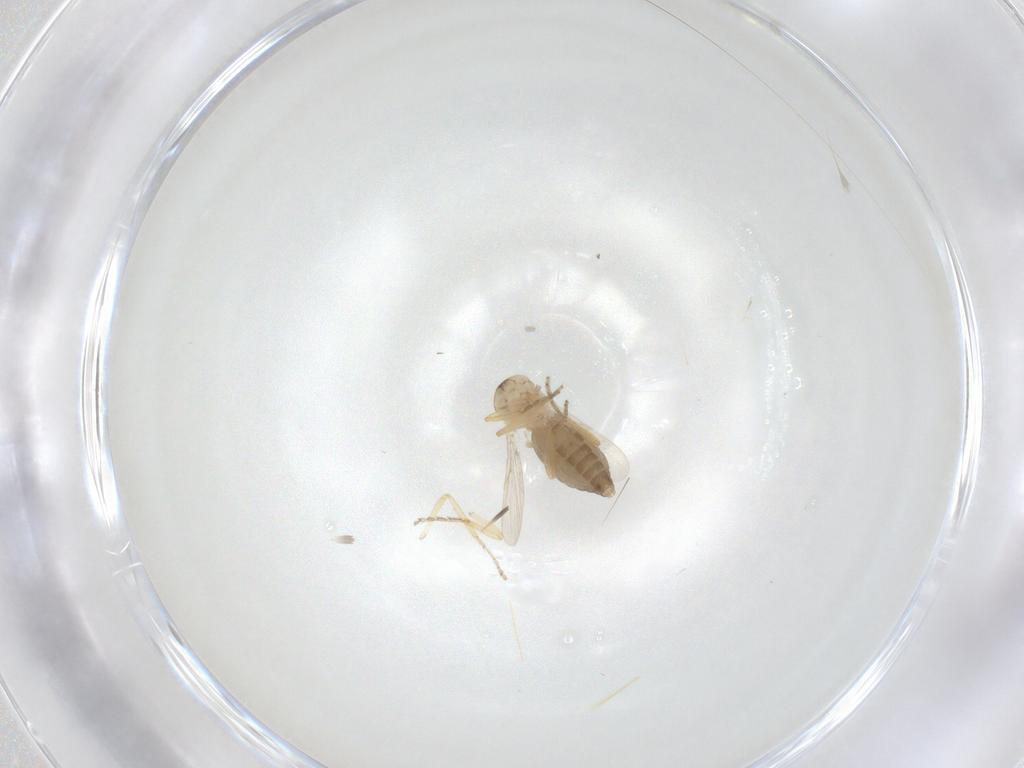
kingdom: Animalia
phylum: Arthropoda
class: Insecta
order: Diptera
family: Ceratopogonidae
